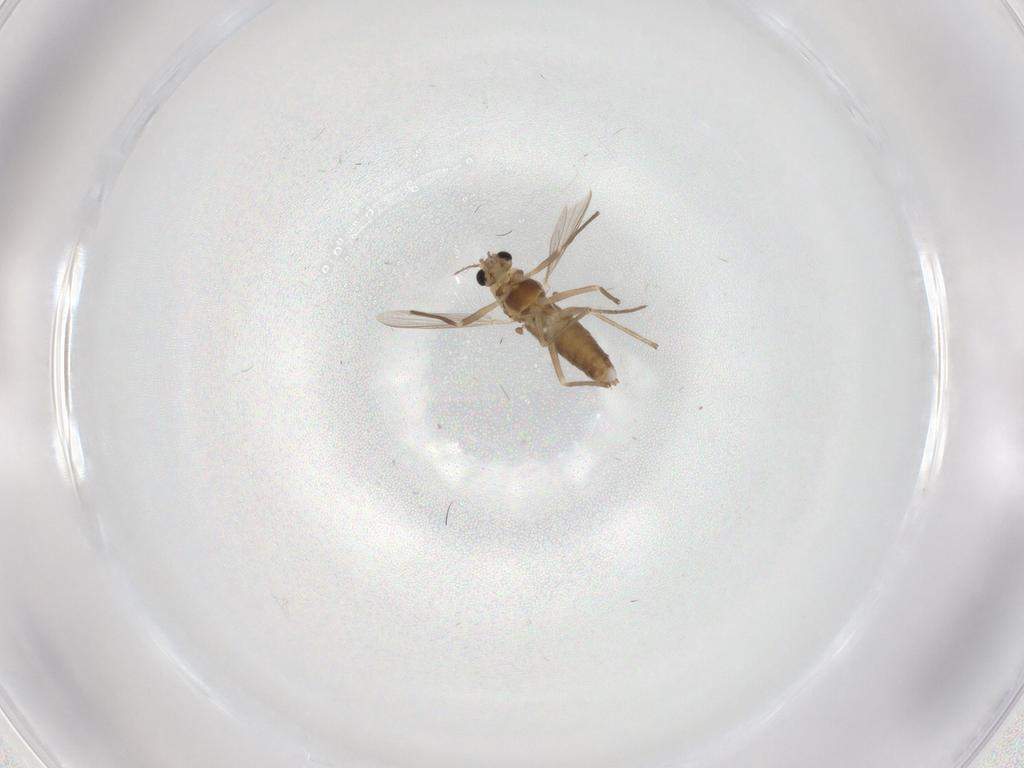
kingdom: Animalia
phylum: Arthropoda
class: Insecta
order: Diptera
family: Chironomidae
